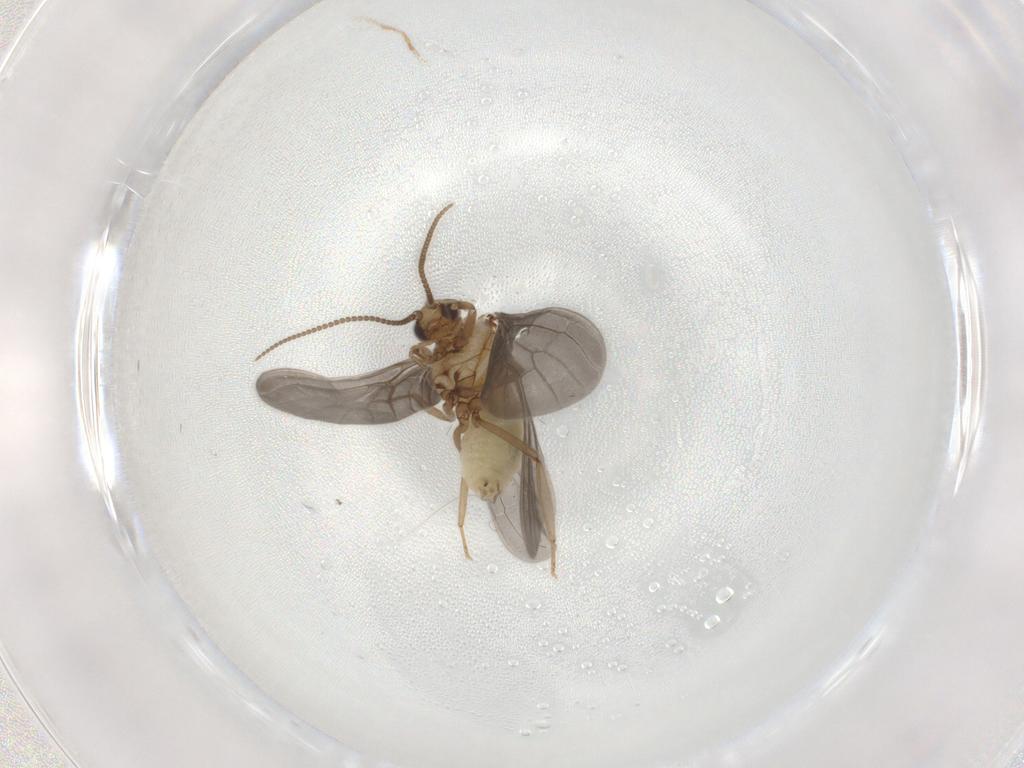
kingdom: Animalia
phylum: Arthropoda
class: Insecta
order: Neuroptera
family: Coniopterygidae
